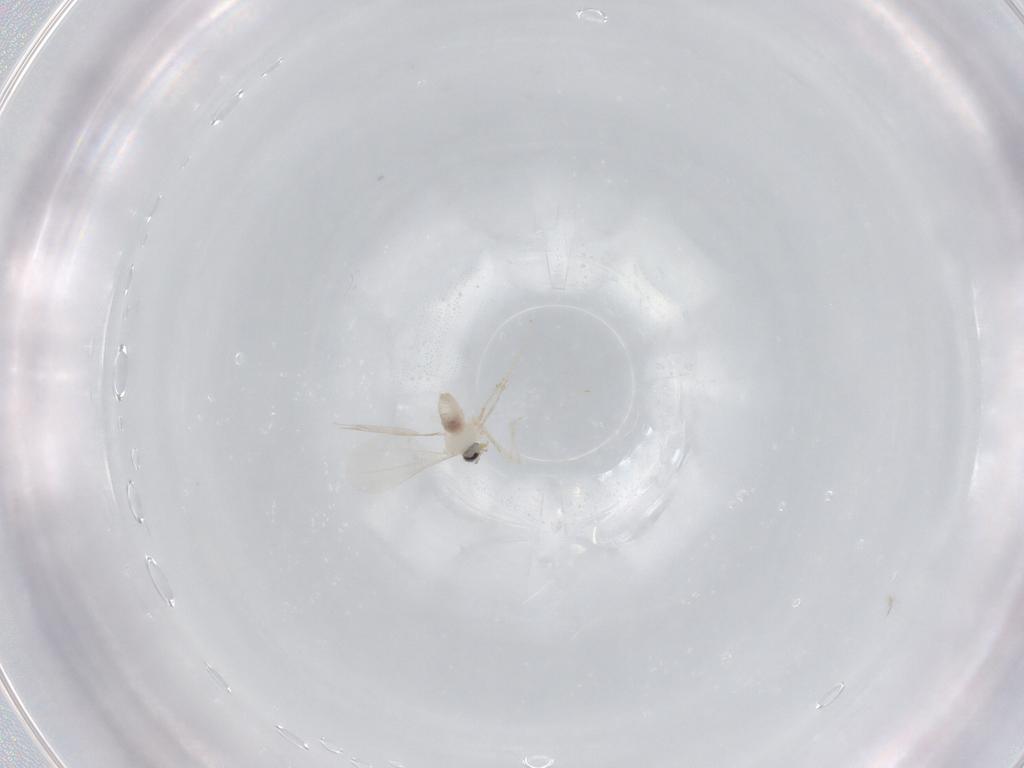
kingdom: Animalia
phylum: Arthropoda
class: Insecta
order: Diptera
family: Cecidomyiidae
